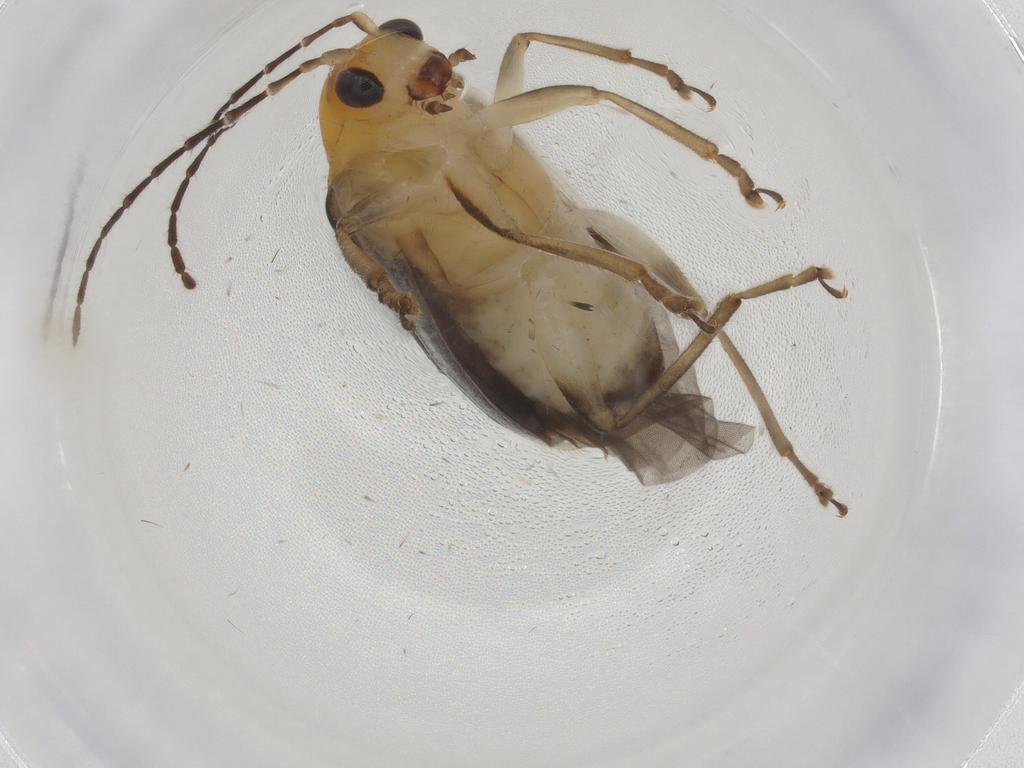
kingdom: Animalia
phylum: Arthropoda
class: Insecta
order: Coleoptera
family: Chrysomelidae
